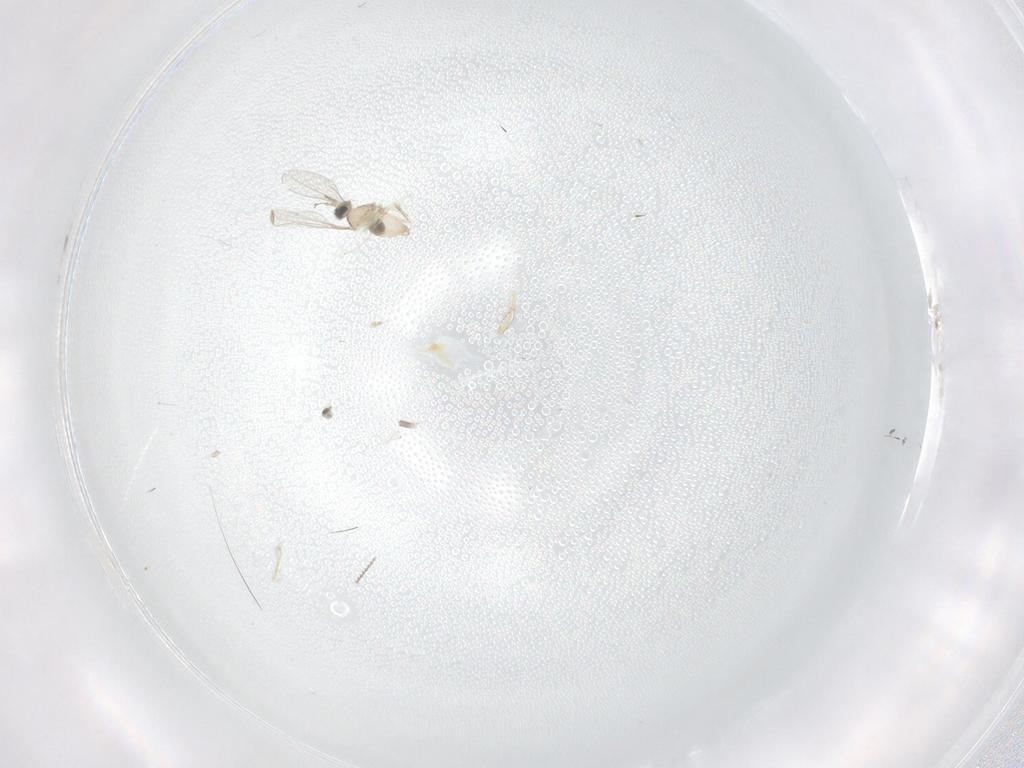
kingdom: Animalia
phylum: Arthropoda
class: Insecta
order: Diptera
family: Cecidomyiidae
